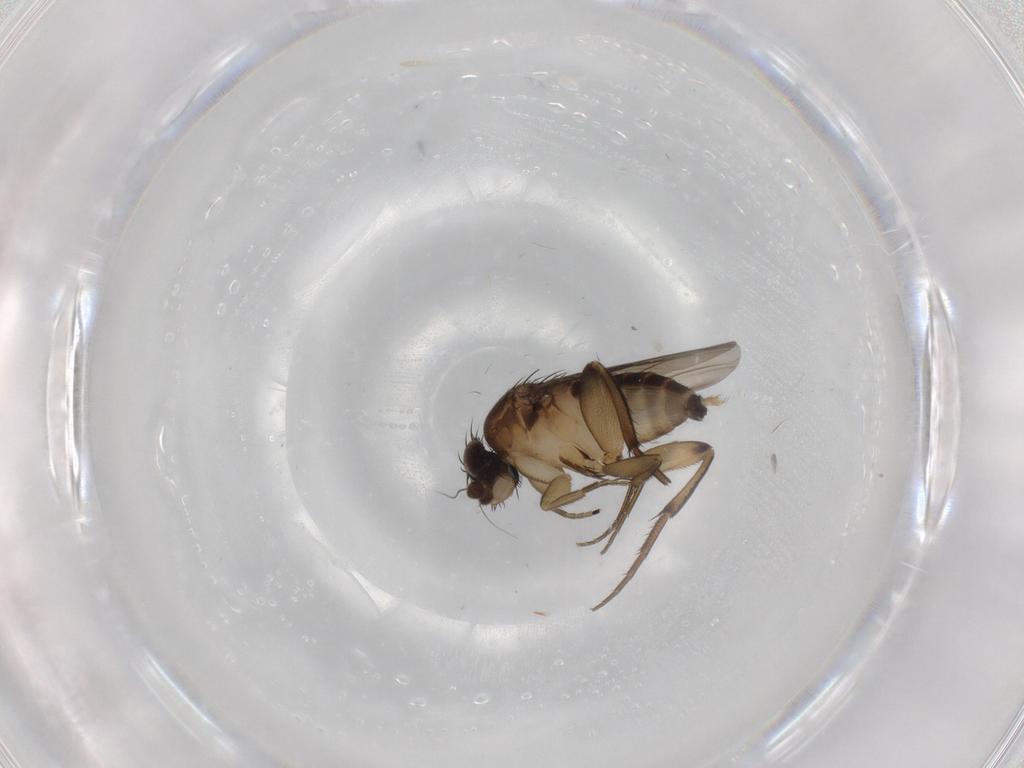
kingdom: Animalia
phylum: Arthropoda
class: Insecta
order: Diptera
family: Phoridae
